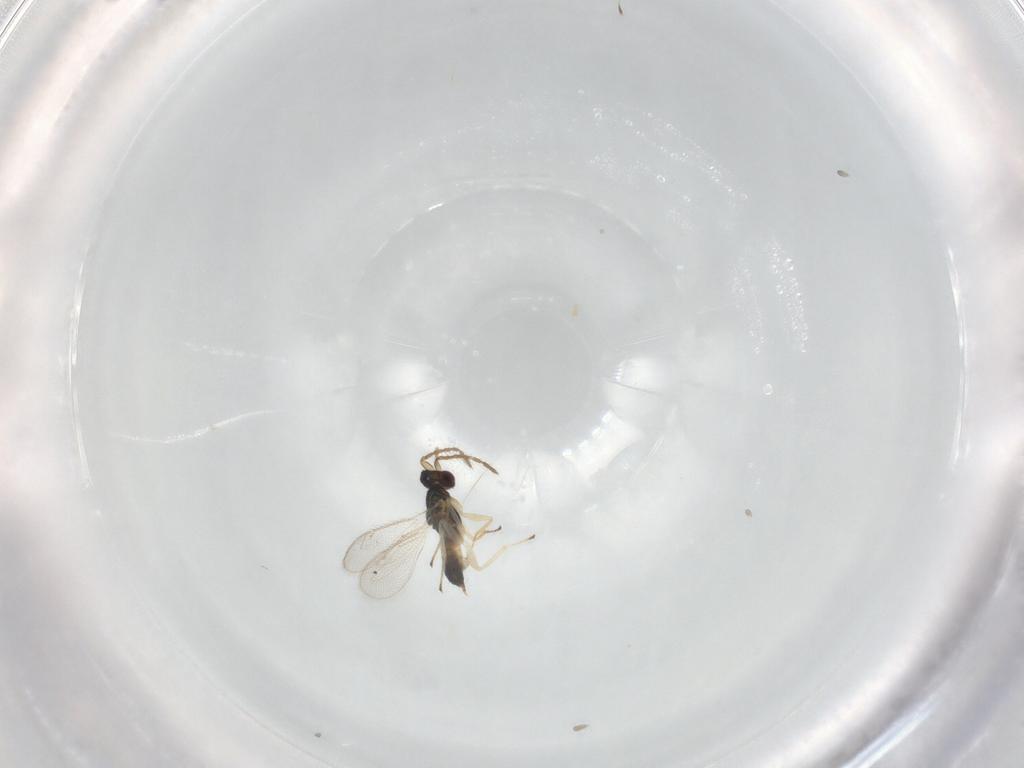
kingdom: Animalia
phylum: Arthropoda
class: Insecta
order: Hymenoptera
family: Eulophidae
